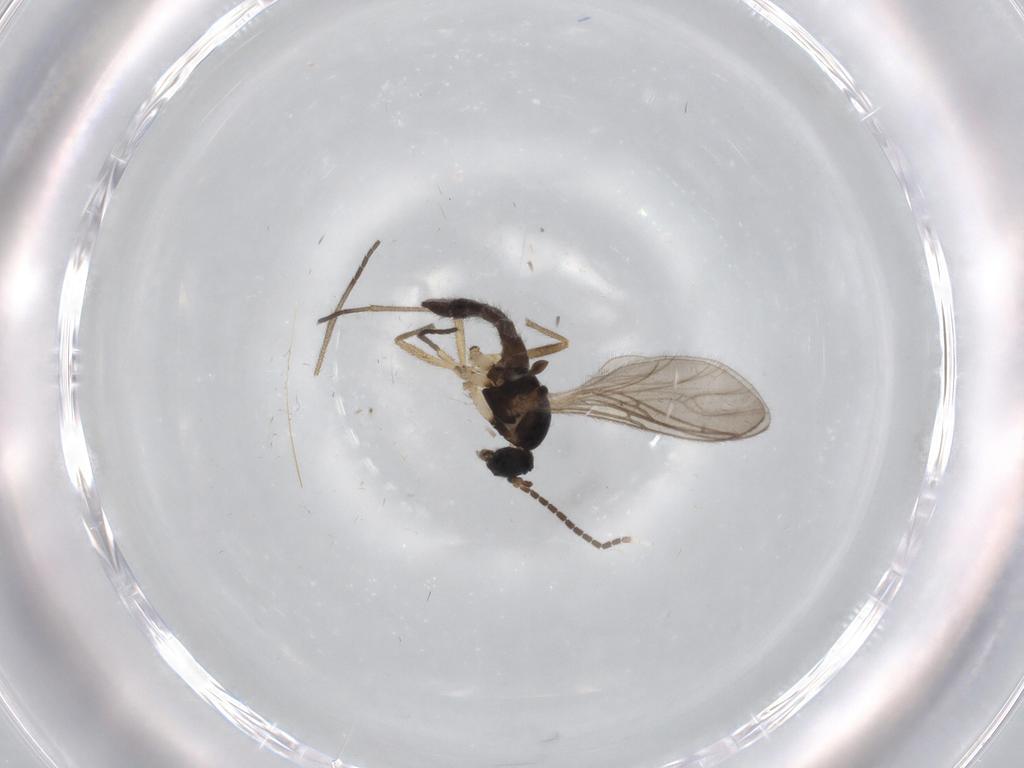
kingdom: Animalia
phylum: Arthropoda
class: Insecta
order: Diptera
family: Sciaridae
